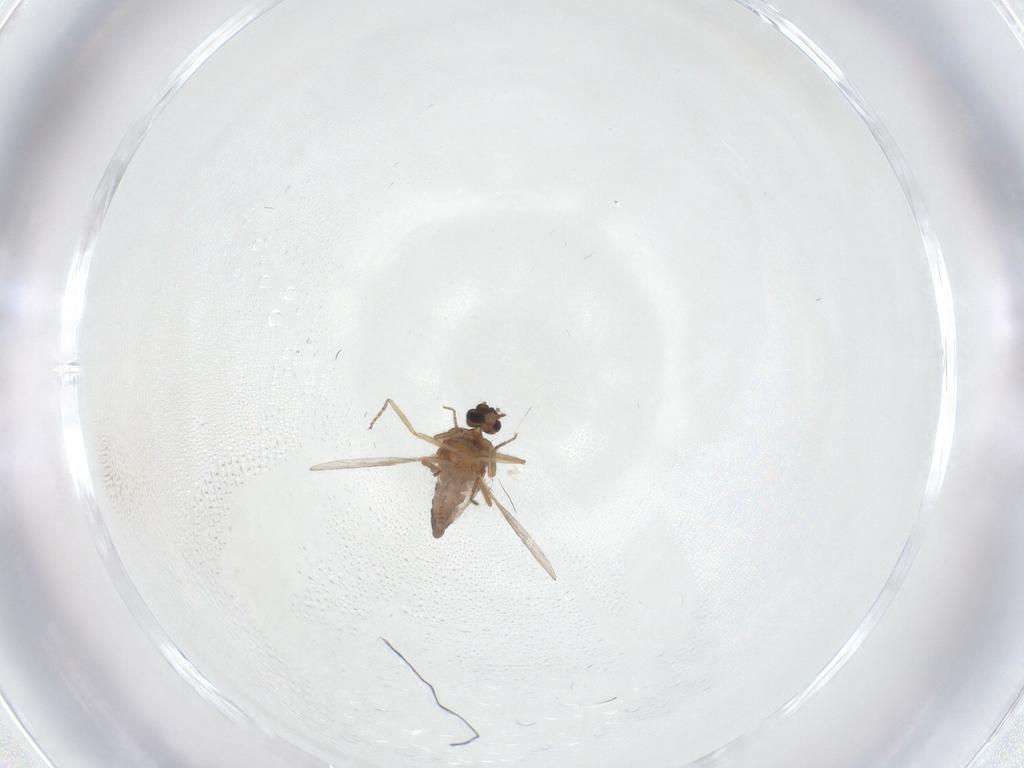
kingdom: Animalia
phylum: Arthropoda
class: Insecta
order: Diptera
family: Ceratopogonidae
